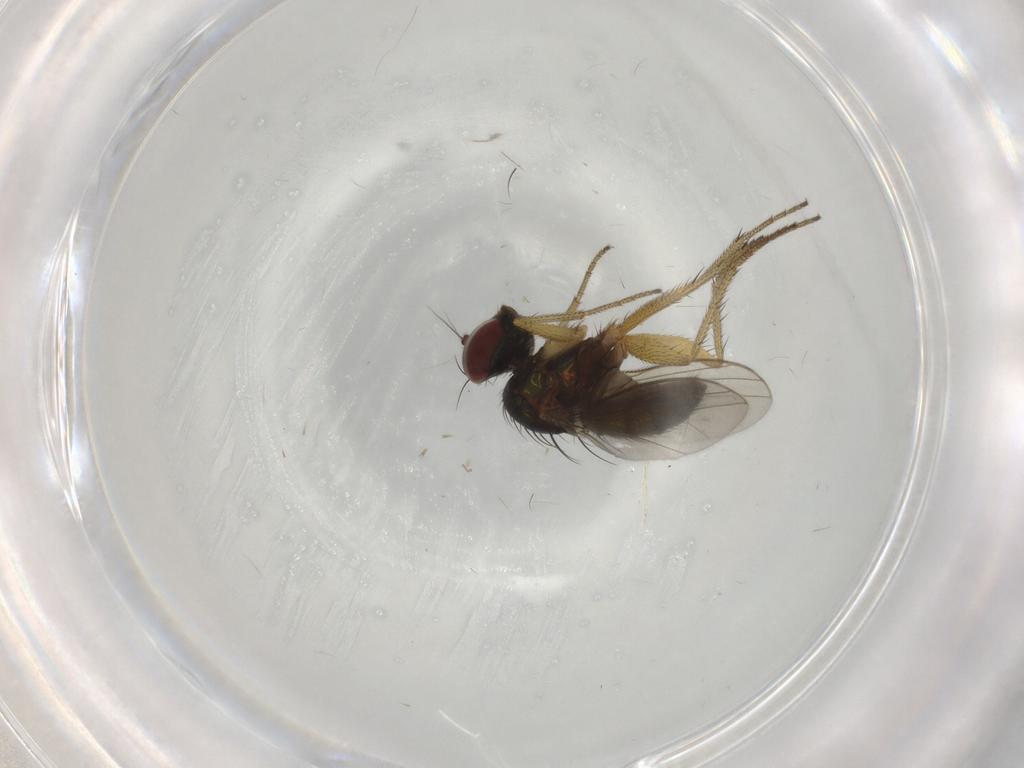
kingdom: Animalia
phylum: Arthropoda
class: Insecta
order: Diptera
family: Dolichopodidae
